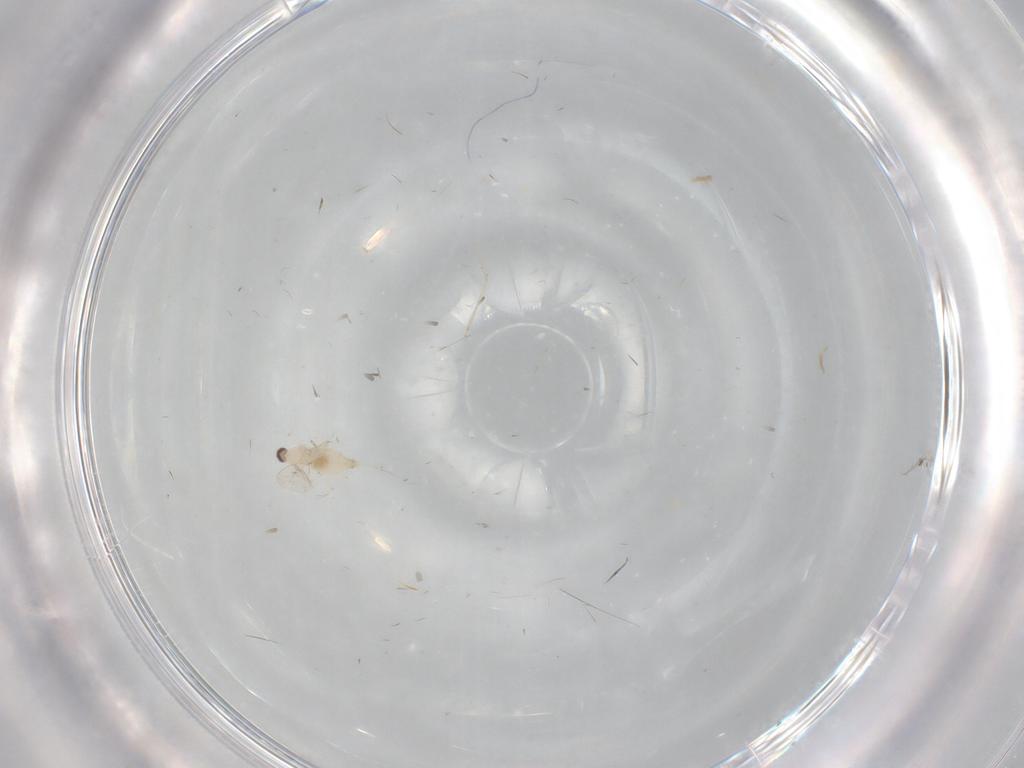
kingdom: Animalia
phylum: Arthropoda
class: Insecta
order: Diptera
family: Cecidomyiidae
